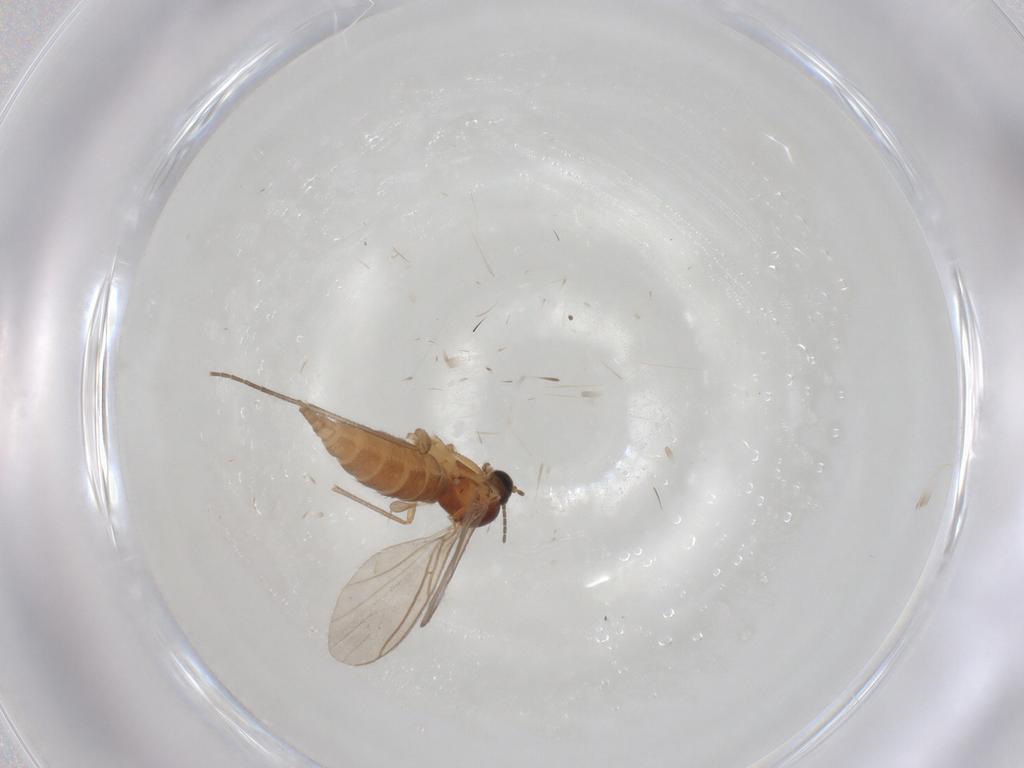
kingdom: Animalia
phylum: Arthropoda
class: Insecta
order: Diptera
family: Sciaridae
